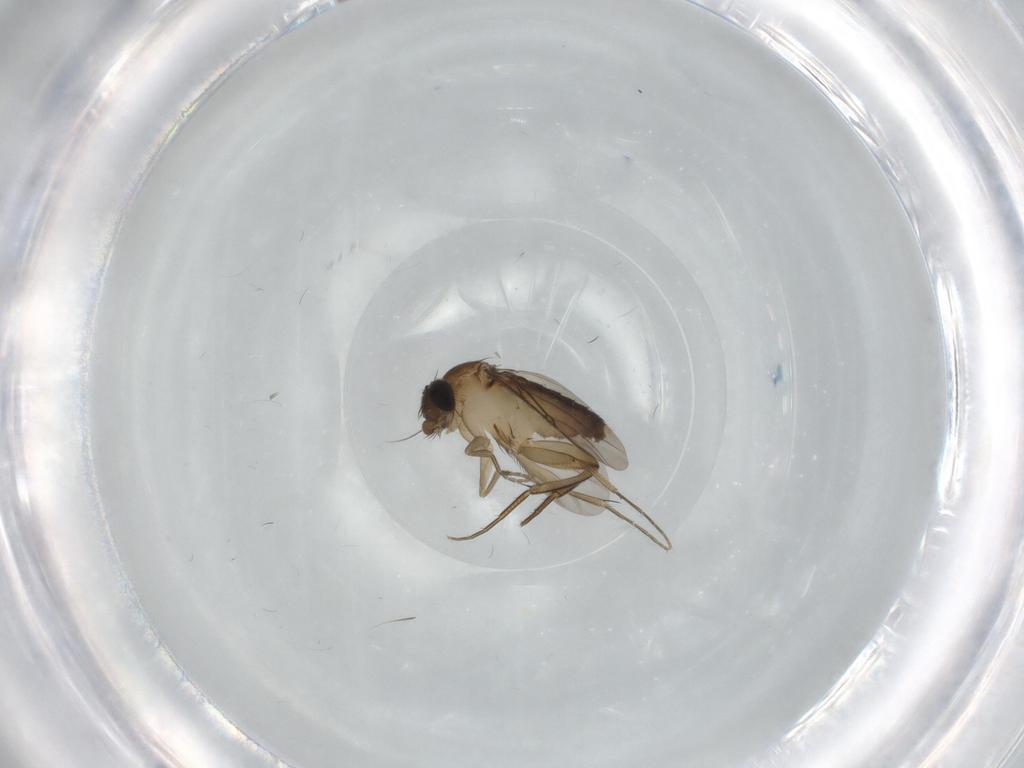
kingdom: Animalia
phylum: Arthropoda
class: Insecta
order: Diptera
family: Phoridae
